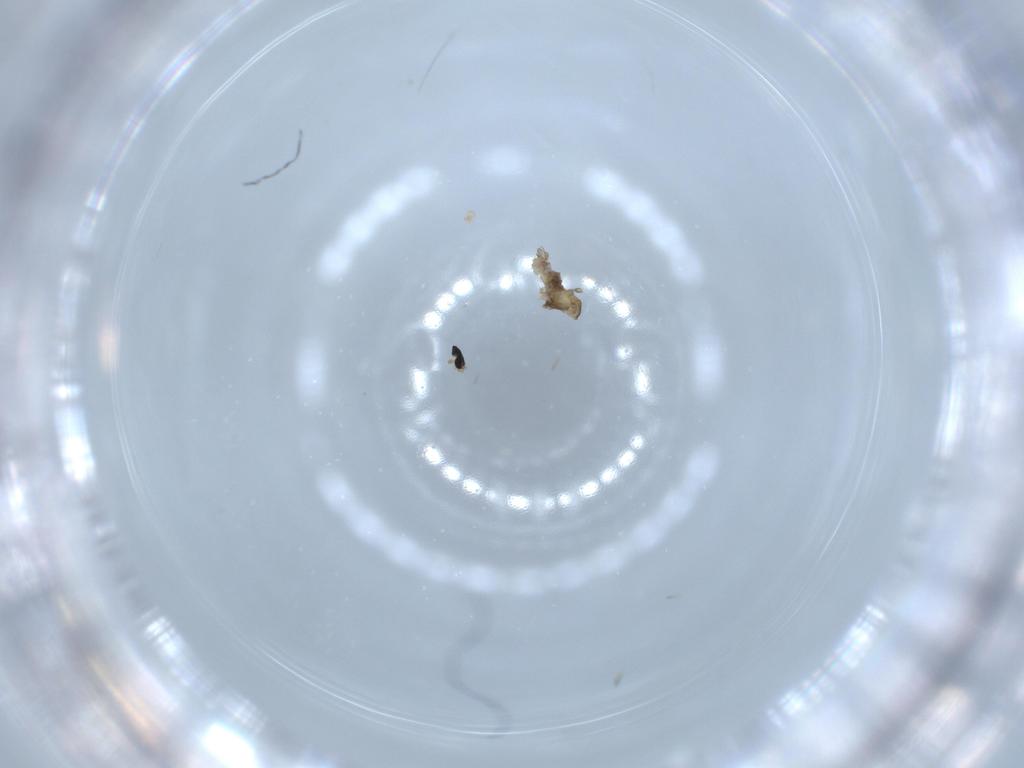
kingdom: Animalia
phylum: Arthropoda
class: Insecta
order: Diptera
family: Cecidomyiidae
